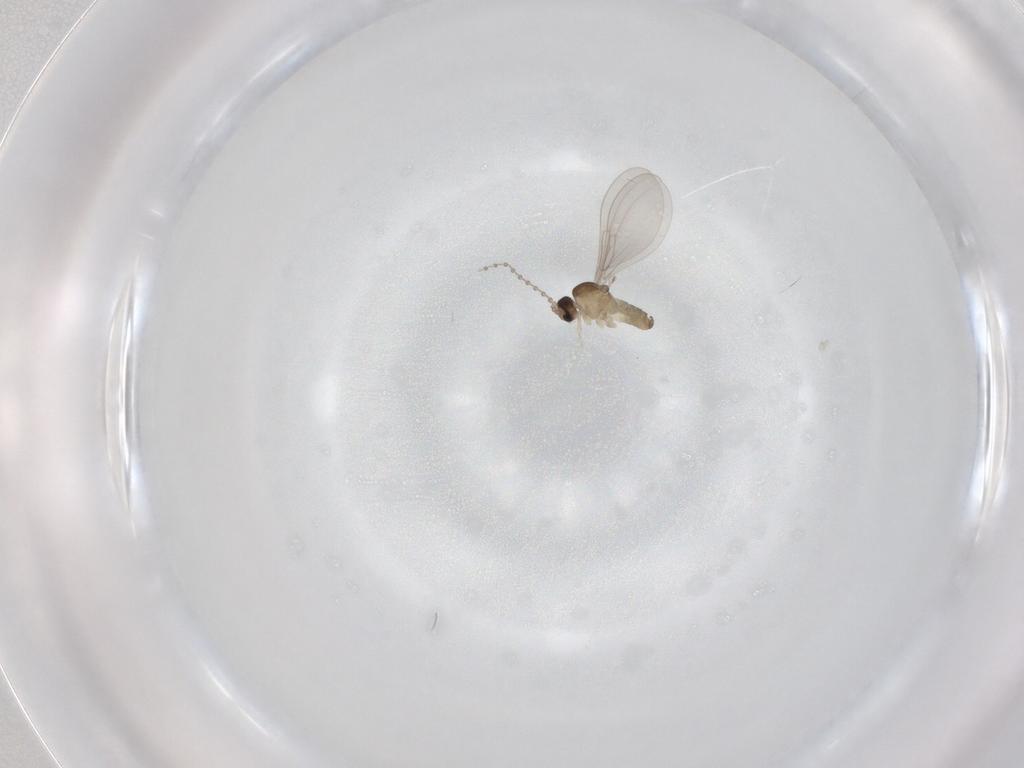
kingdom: Animalia
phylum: Arthropoda
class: Insecta
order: Diptera
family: Cecidomyiidae
